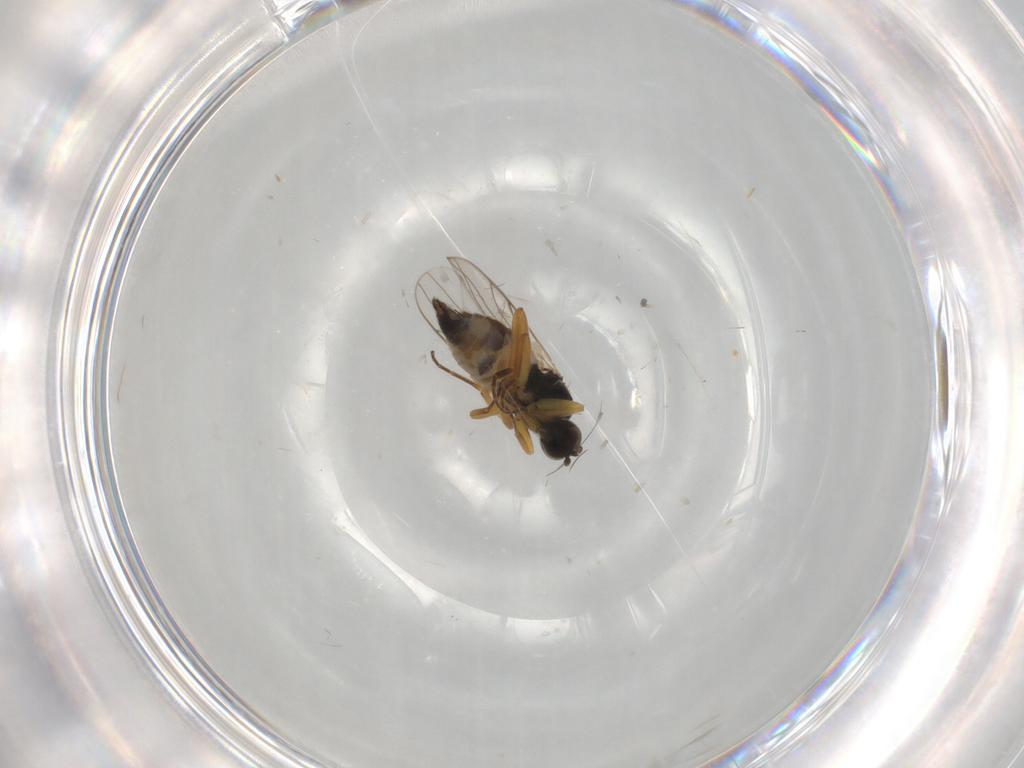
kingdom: Animalia
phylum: Arthropoda
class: Insecta
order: Diptera
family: Hybotidae
